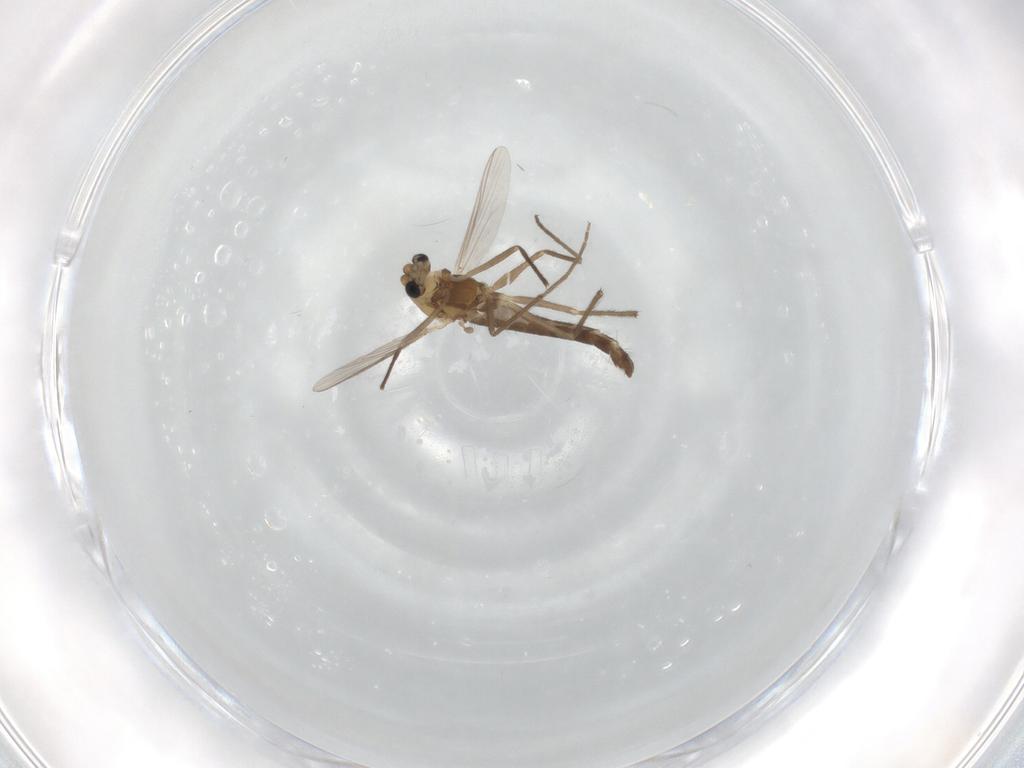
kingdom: Animalia
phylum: Arthropoda
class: Insecta
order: Diptera
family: Chironomidae
